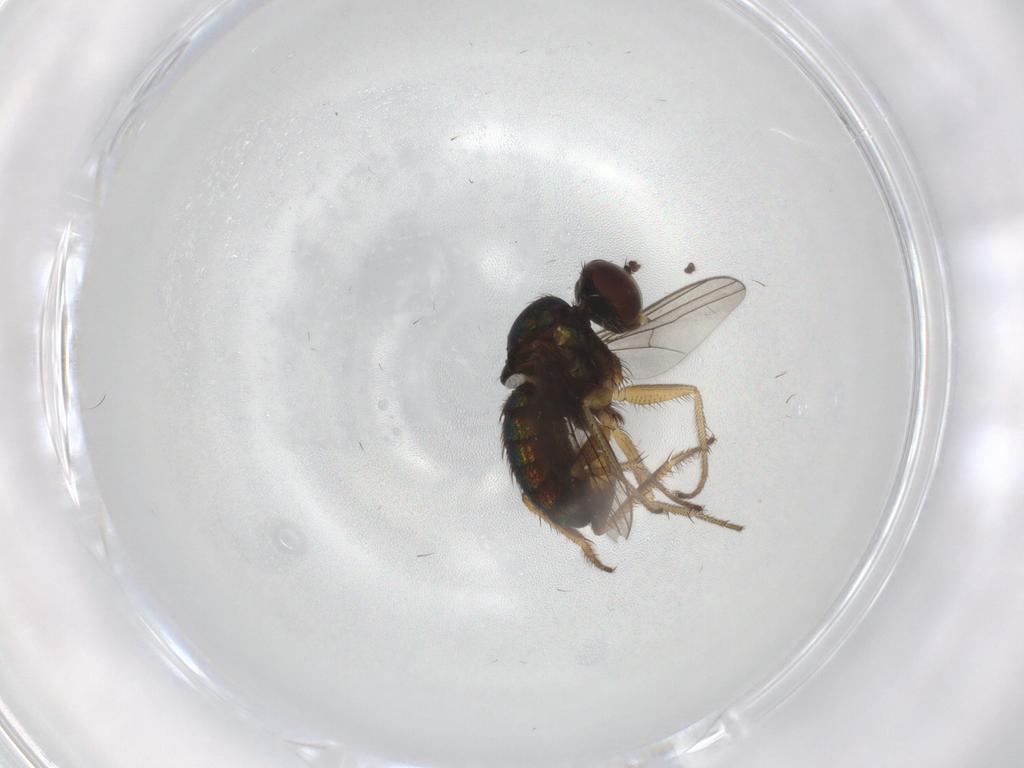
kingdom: Animalia
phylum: Arthropoda
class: Insecta
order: Diptera
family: Dolichopodidae
